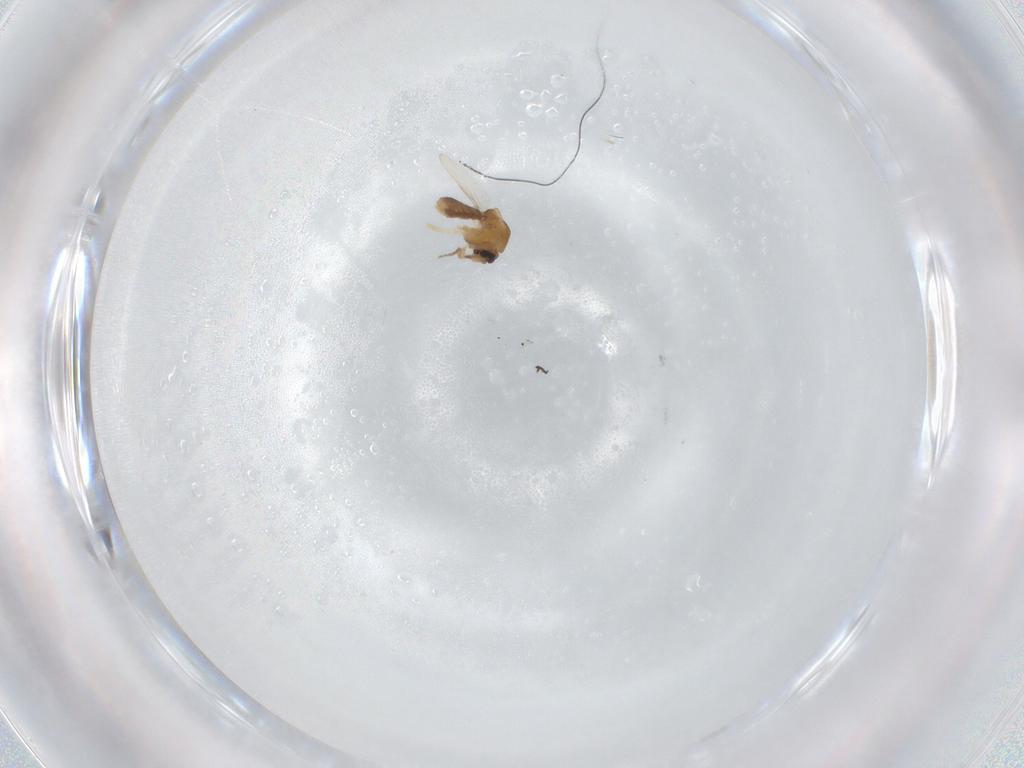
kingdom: Animalia
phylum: Arthropoda
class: Insecta
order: Diptera
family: Ceratopogonidae
